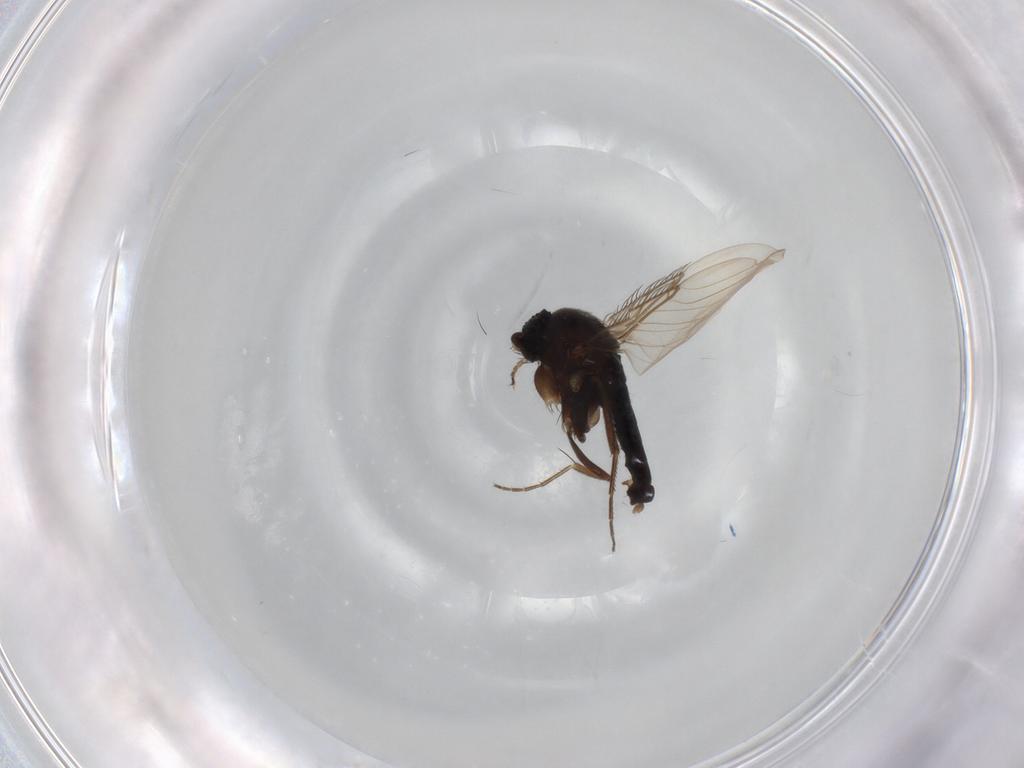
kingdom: Animalia
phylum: Arthropoda
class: Insecta
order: Diptera
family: Phoridae
